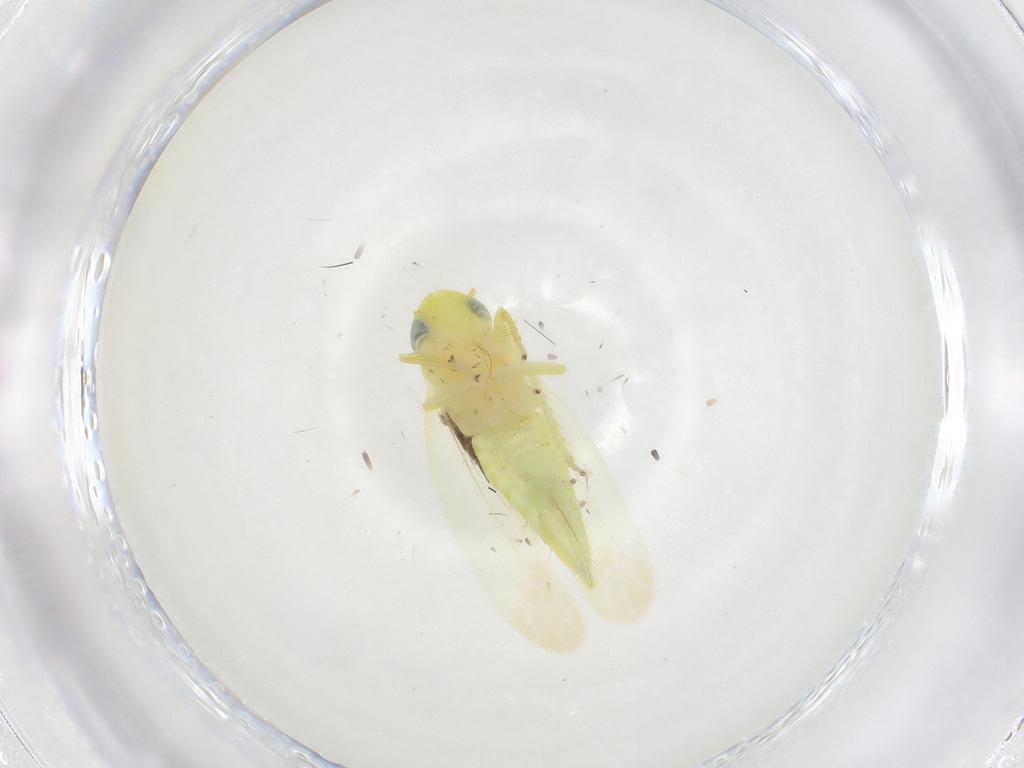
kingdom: Animalia
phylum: Arthropoda
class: Insecta
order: Hemiptera
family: Cicadellidae
